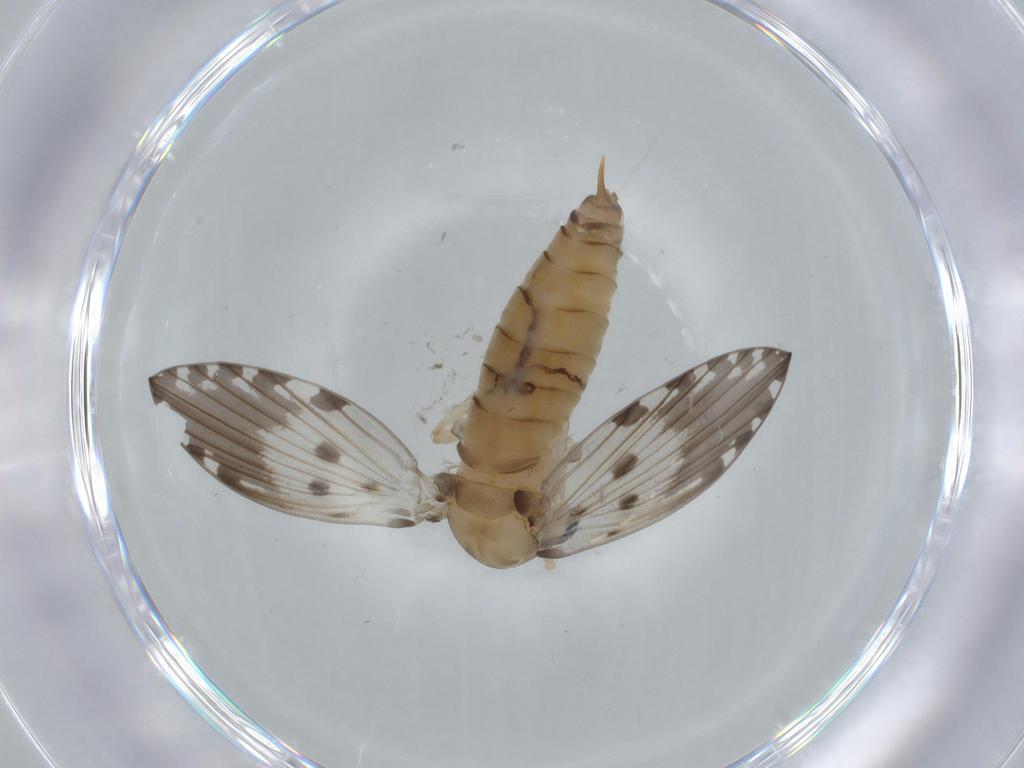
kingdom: Animalia
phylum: Arthropoda
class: Insecta
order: Diptera
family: Psychodidae
